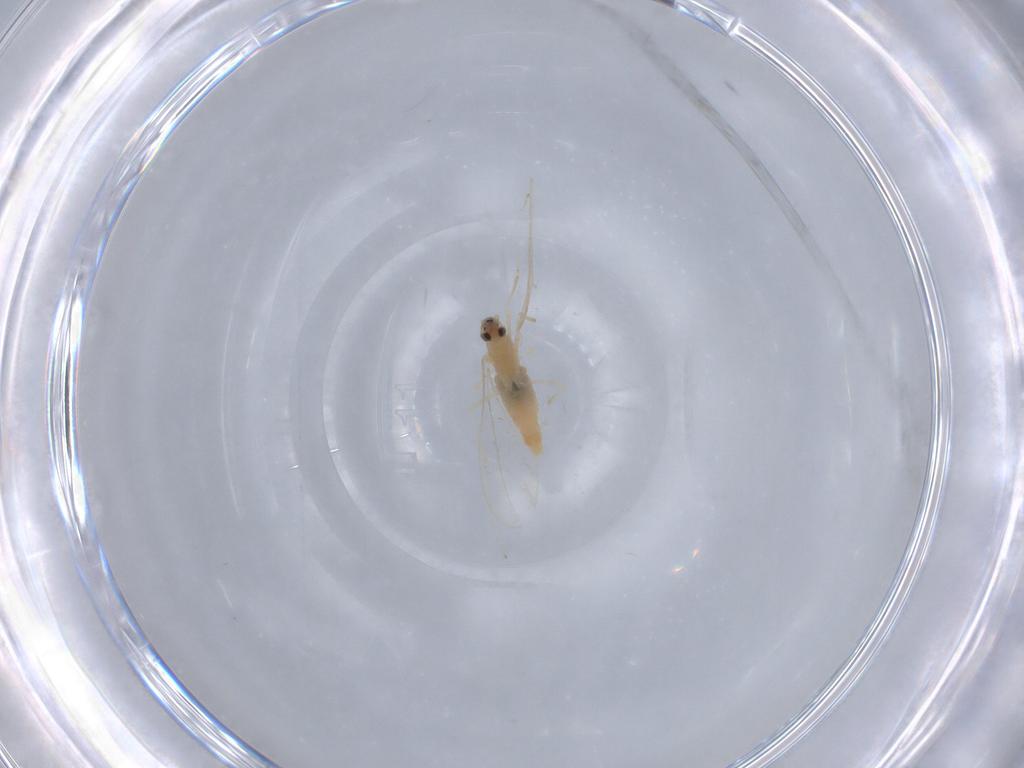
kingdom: Animalia
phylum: Arthropoda
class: Insecta
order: Diptera
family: Cecidomyiidae
